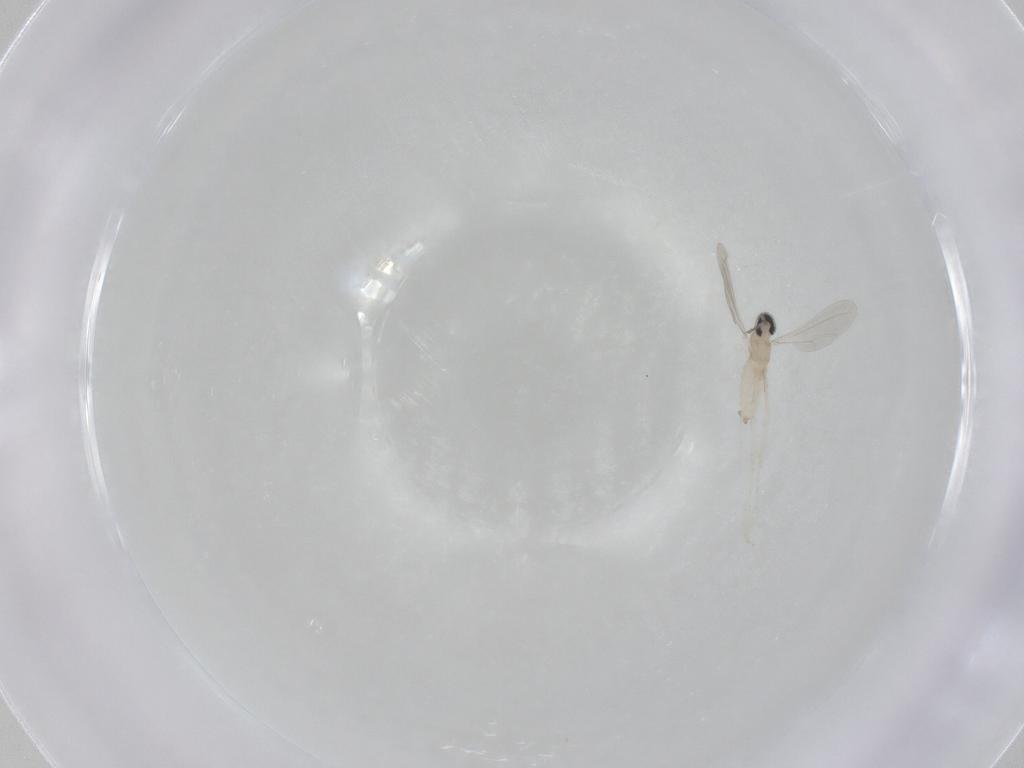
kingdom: Animalia
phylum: Arthropoda
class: Insecta
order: Diptera
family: Cecidomyiidae
